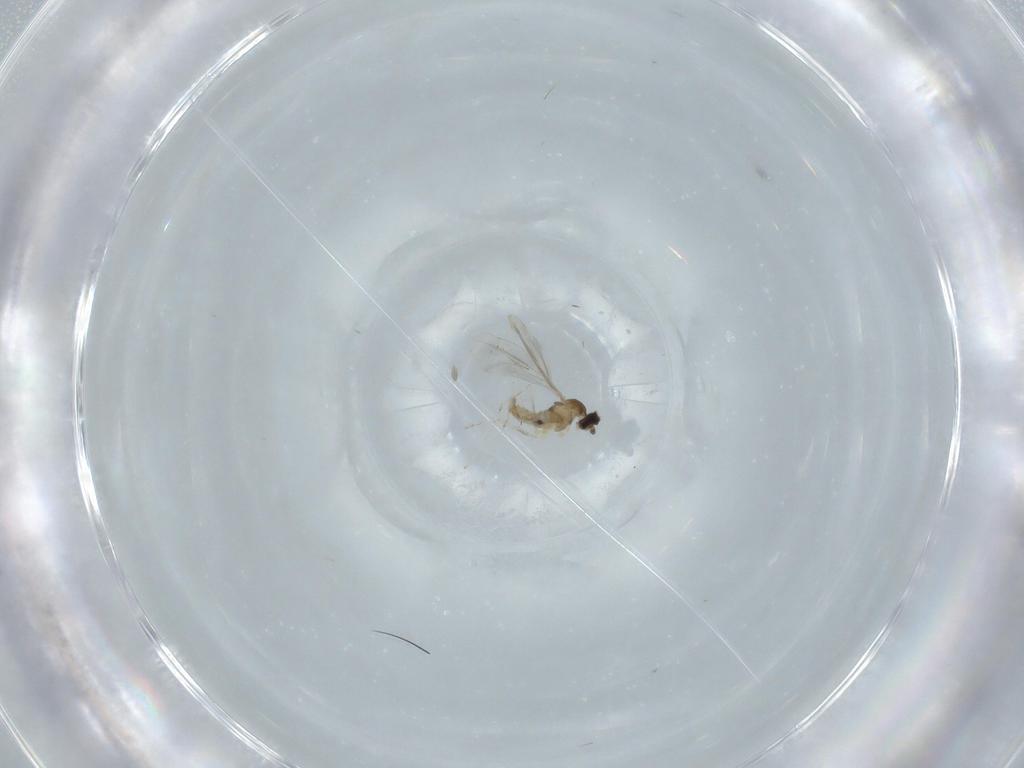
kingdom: Animalia
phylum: Arthropoda
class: Insecta
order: Diptera
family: Cecidomyiidae
